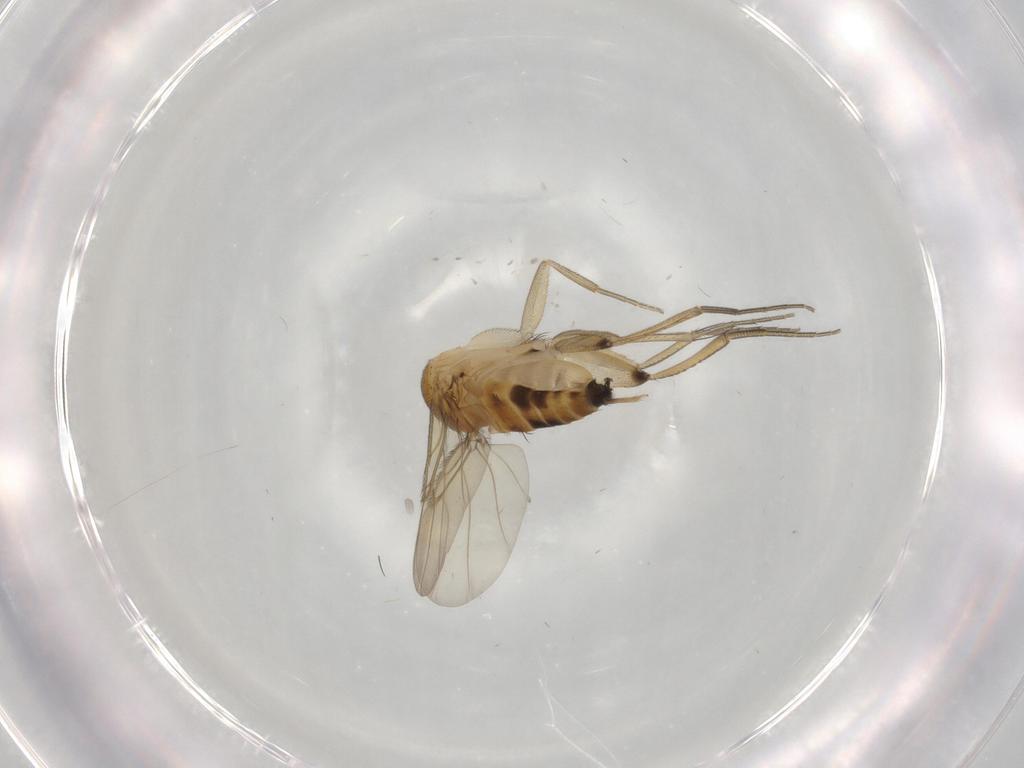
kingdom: Animalia
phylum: Arthropoda
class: Insecta
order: Diptera
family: Phoridae
